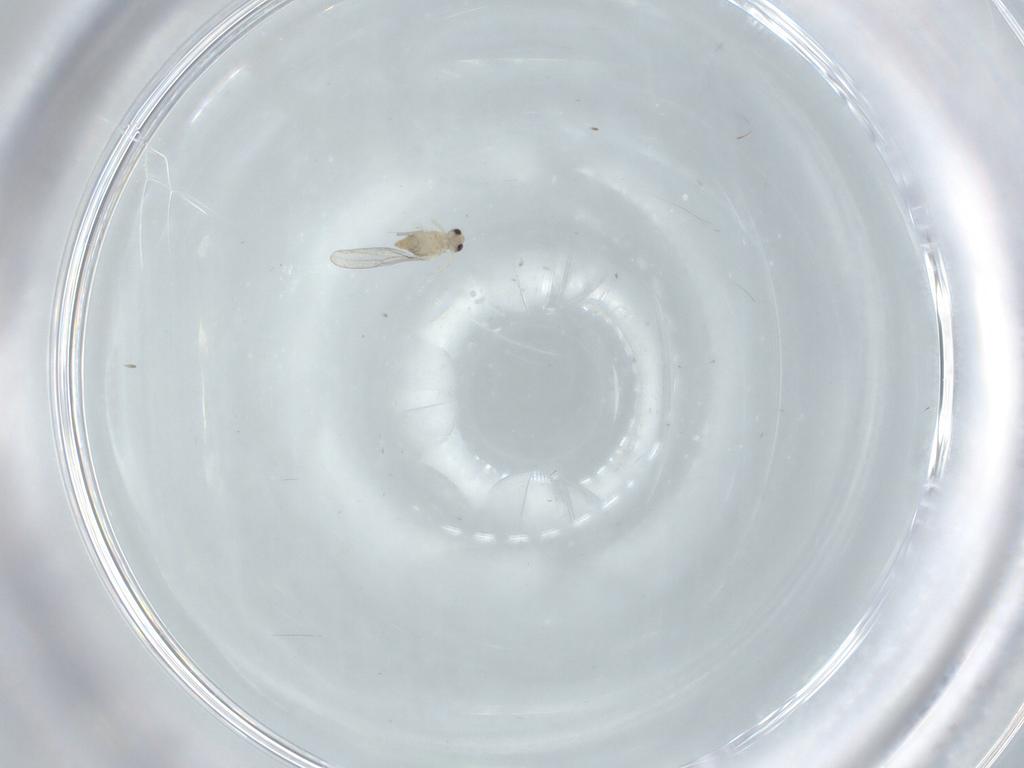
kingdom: Animalia
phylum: Arthropoda
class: Insecta
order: Diptera
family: Cecidomyiidae
